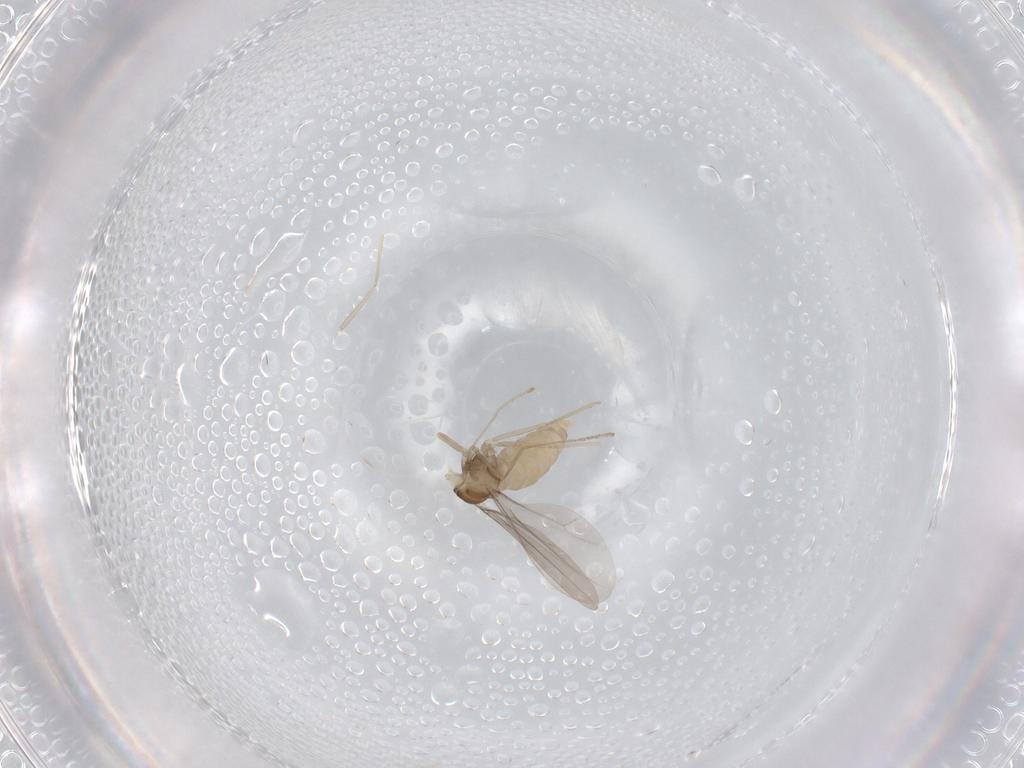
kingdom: Animalia
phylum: Arthropoda
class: Insecta
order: Diptera
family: Cecidomyiidae
